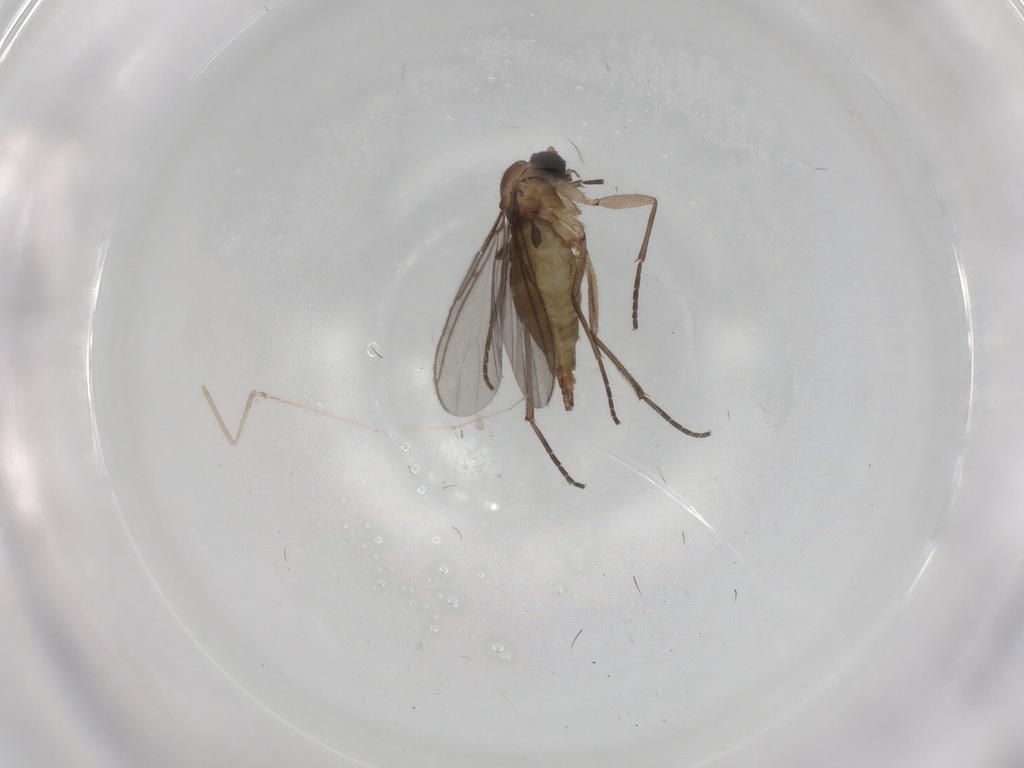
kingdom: Animalia
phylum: Arthropoda
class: Insecta
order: Diptera
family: Sciaridae
